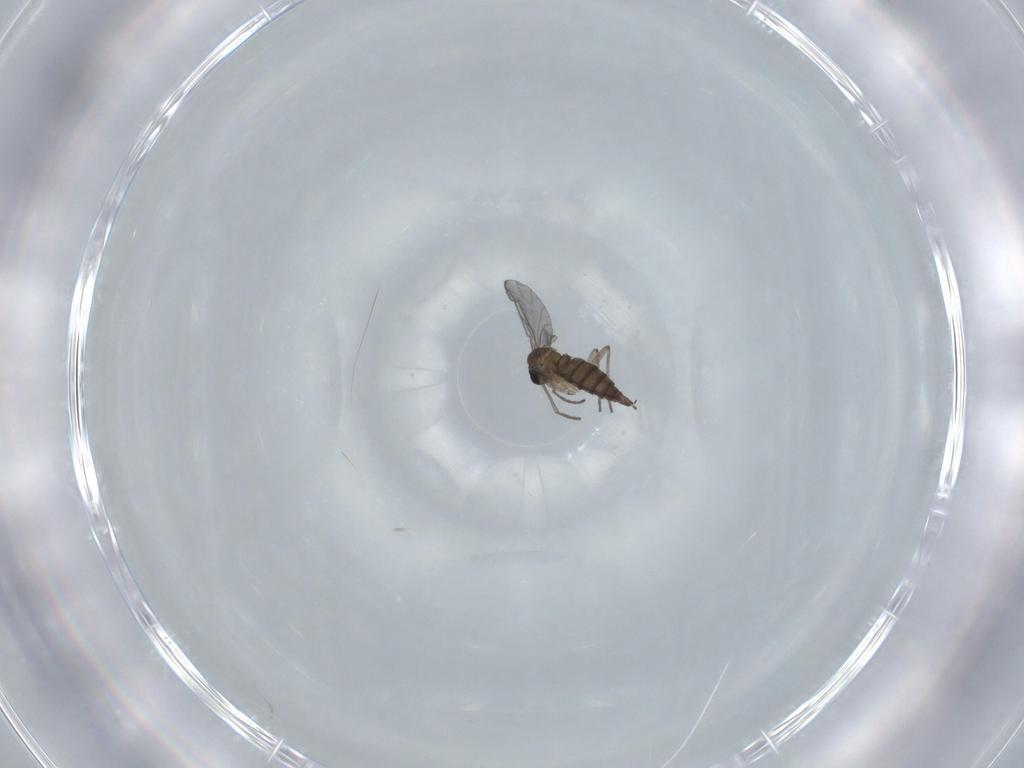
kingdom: Animalia
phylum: Arthropoda
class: Insecta
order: Diptera
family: Sciaridae
